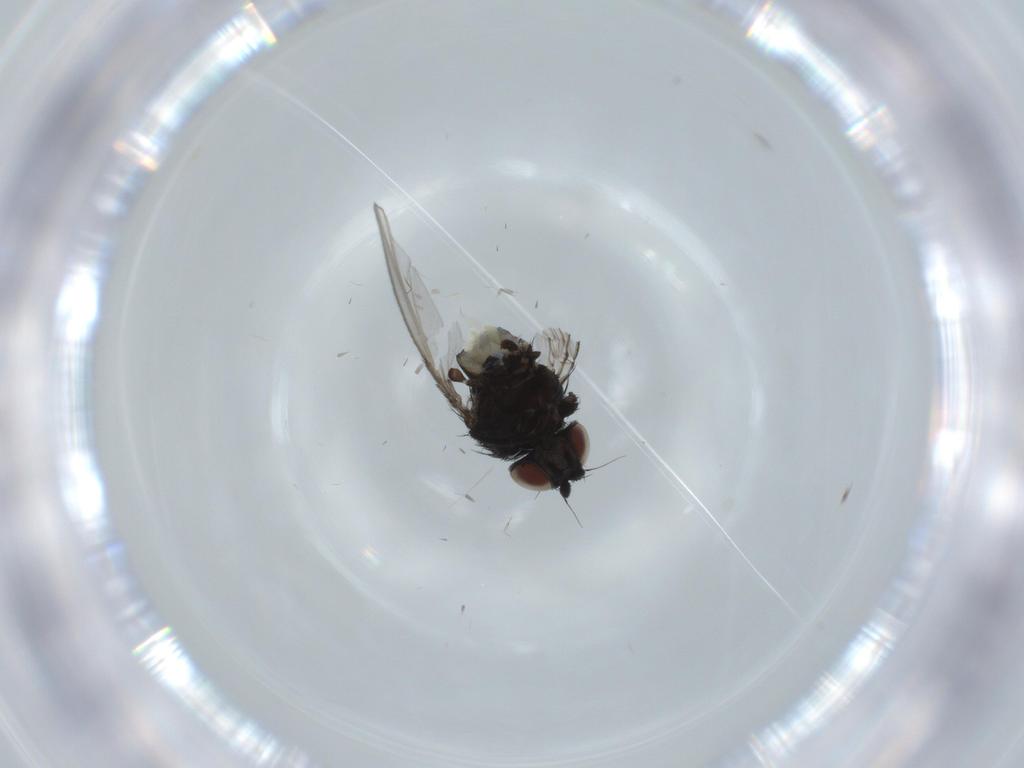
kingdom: Animalia
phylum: Arthropoda
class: Insecta
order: Diptera
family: Milichiidae
